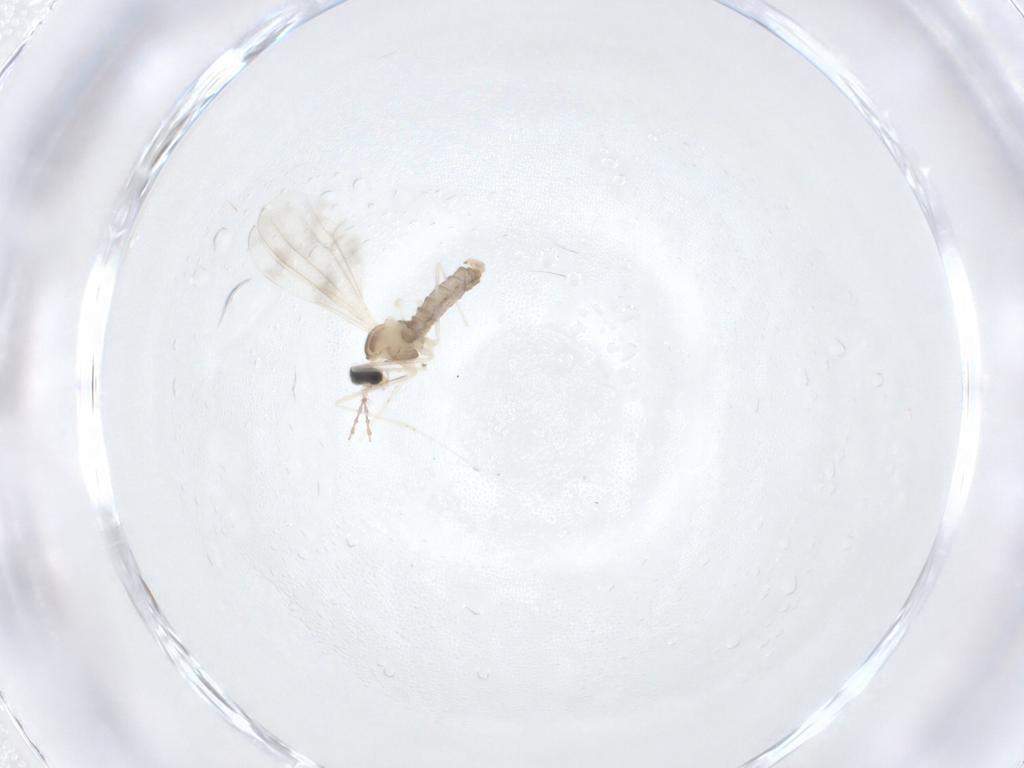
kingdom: Animalia
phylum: Arthropoda
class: Insecta
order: Diptera
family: Cecidomyiidae
